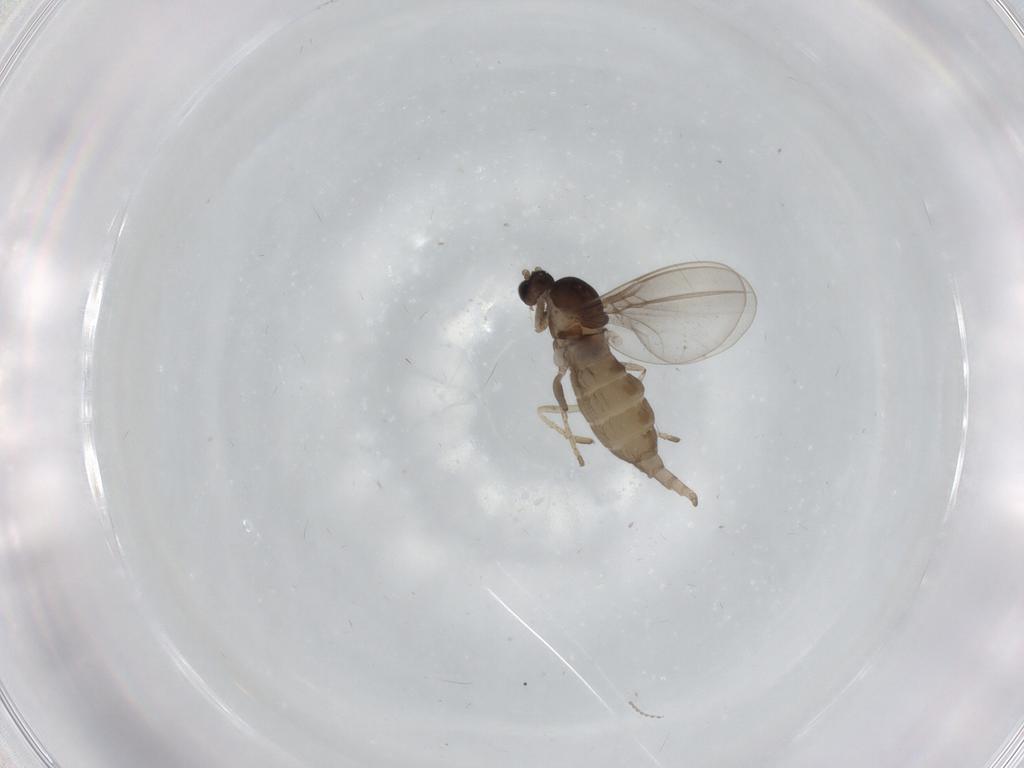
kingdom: Animalia
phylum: Arthropoda
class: Insecta
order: Diptera
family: Cecidomyiidae
